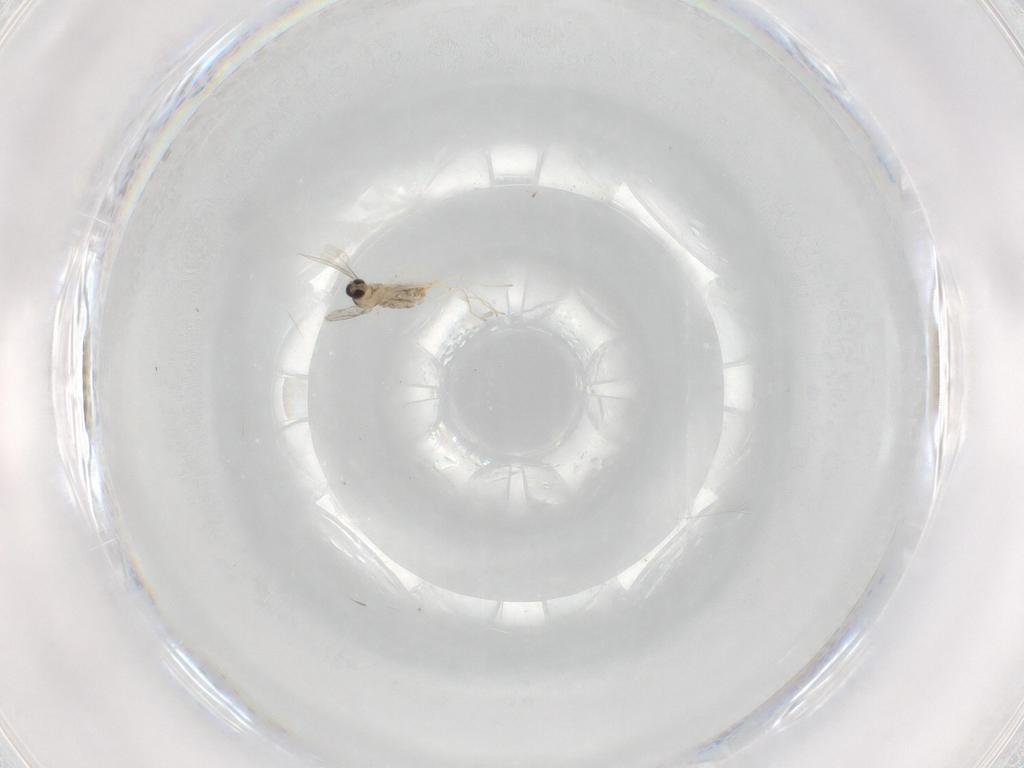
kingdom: Animalia
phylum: Arthropoda
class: Insecta
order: Diptera
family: Cecidomyiidae
